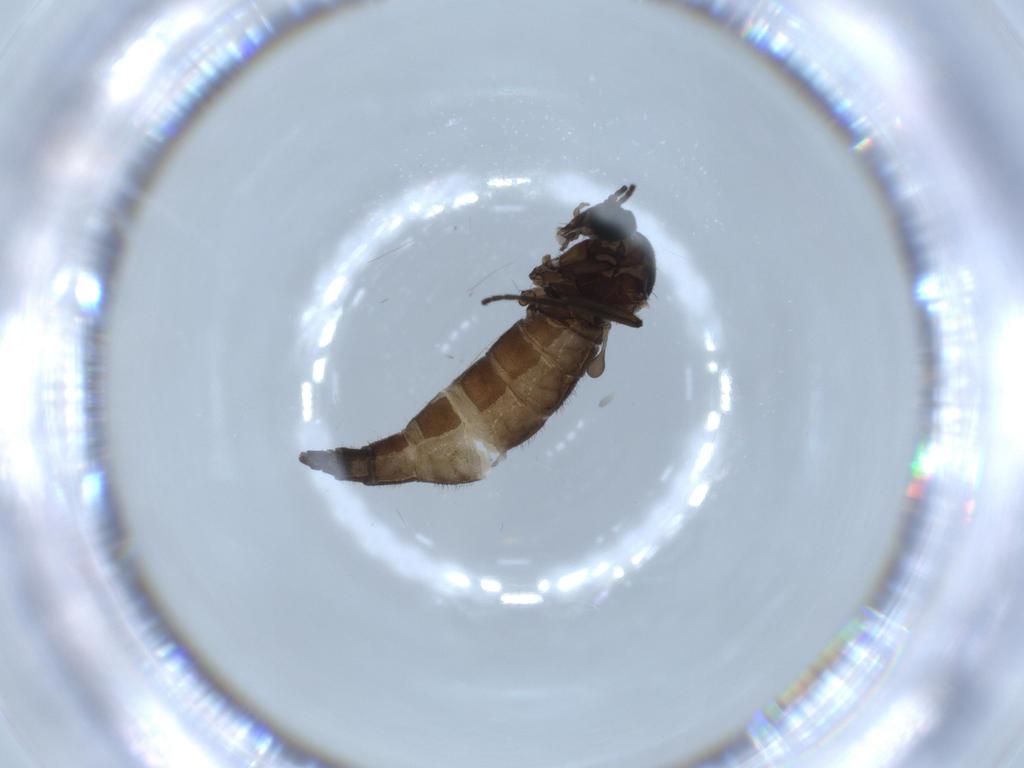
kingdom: Animalia
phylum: Arthropoda
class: Insecta
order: Diptera
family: Sciaridae
